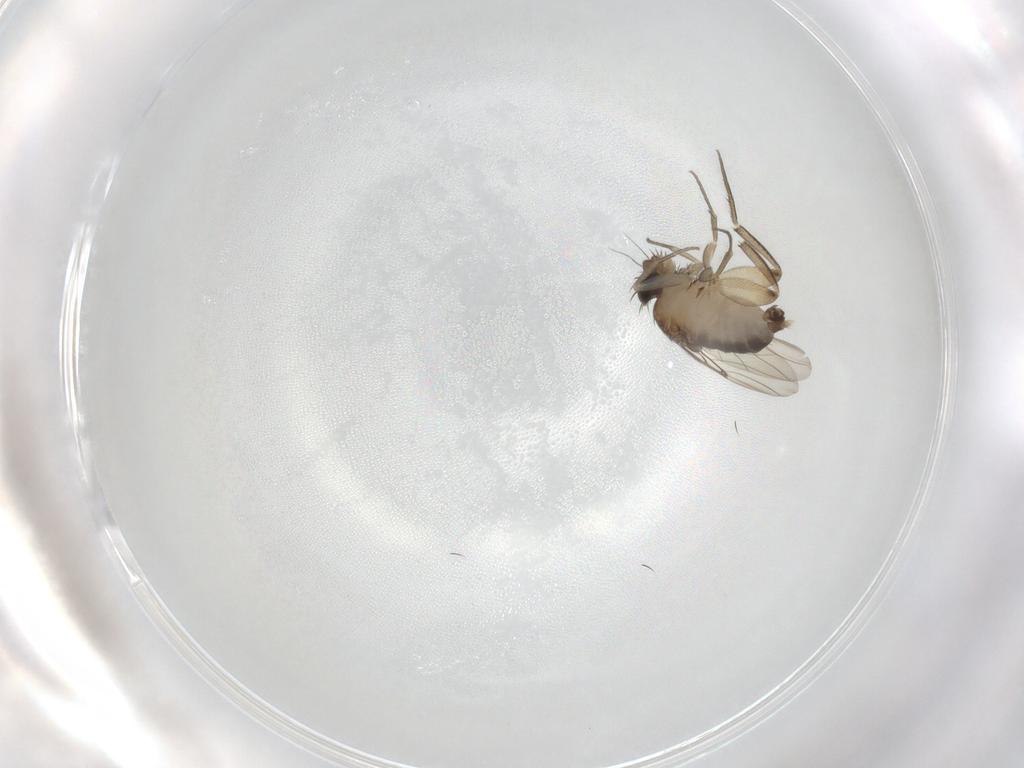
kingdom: Animalia
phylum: Arthropoda
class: Insecta
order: Diptera
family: Phoridae
